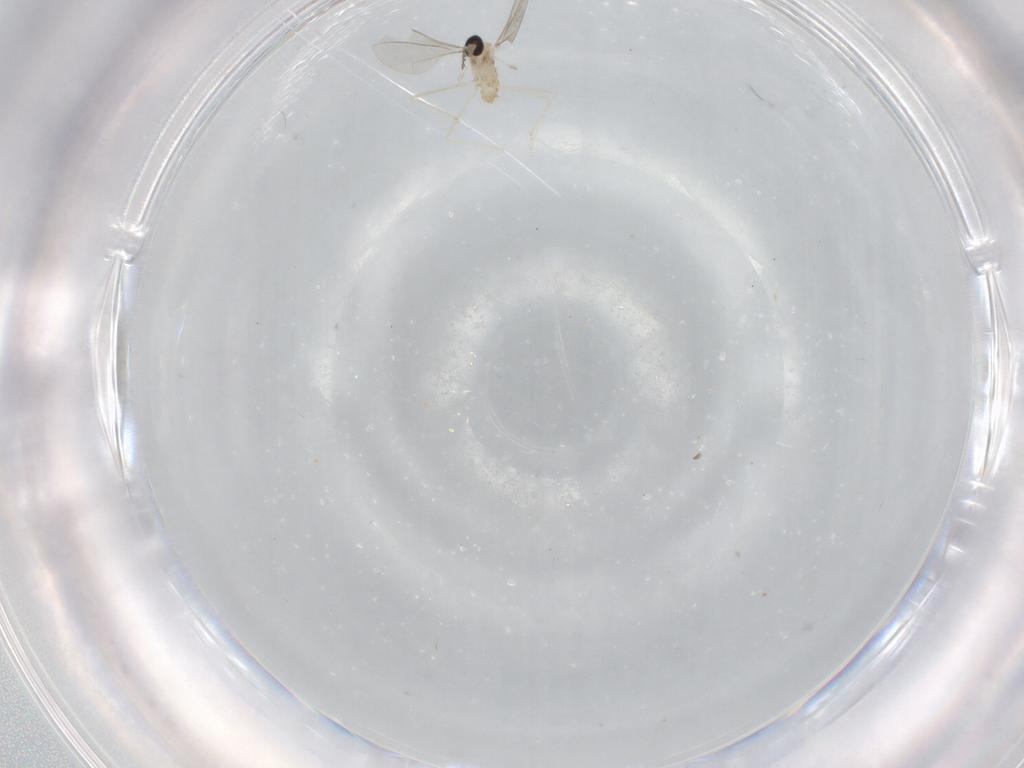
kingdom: Animalia
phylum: Arthropoda
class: Insecta
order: Diptera
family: Cecidomyiidae
